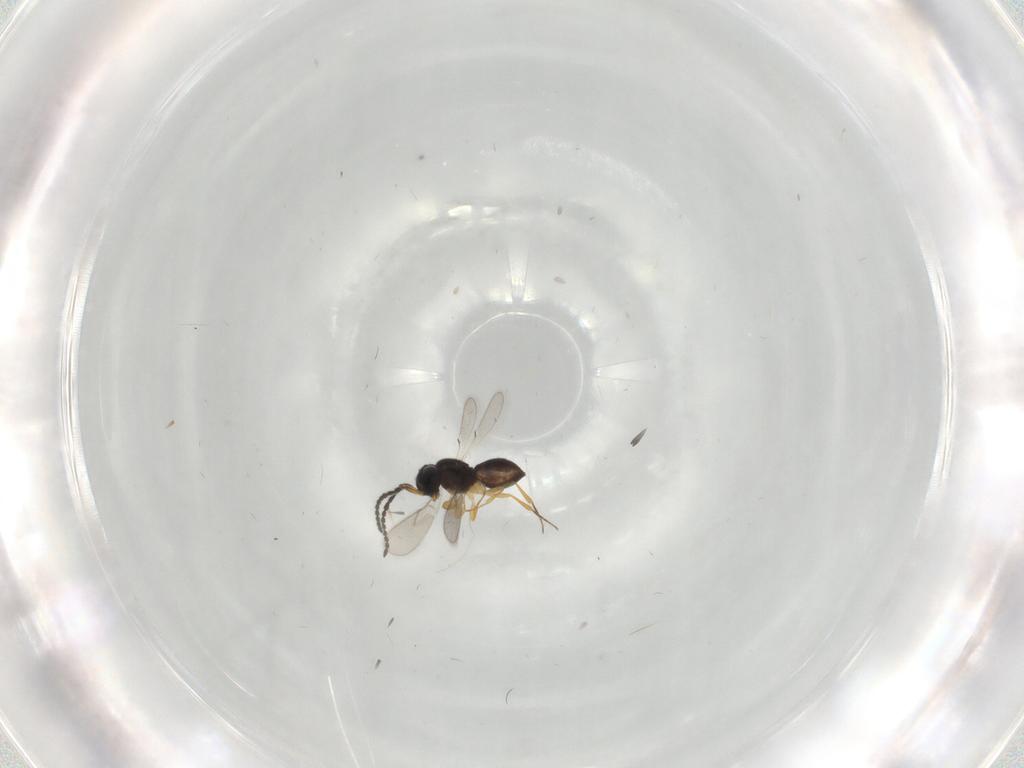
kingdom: Animalia
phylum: Arthropoda
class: Insecta
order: Hymenoptera
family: Scelionidae
